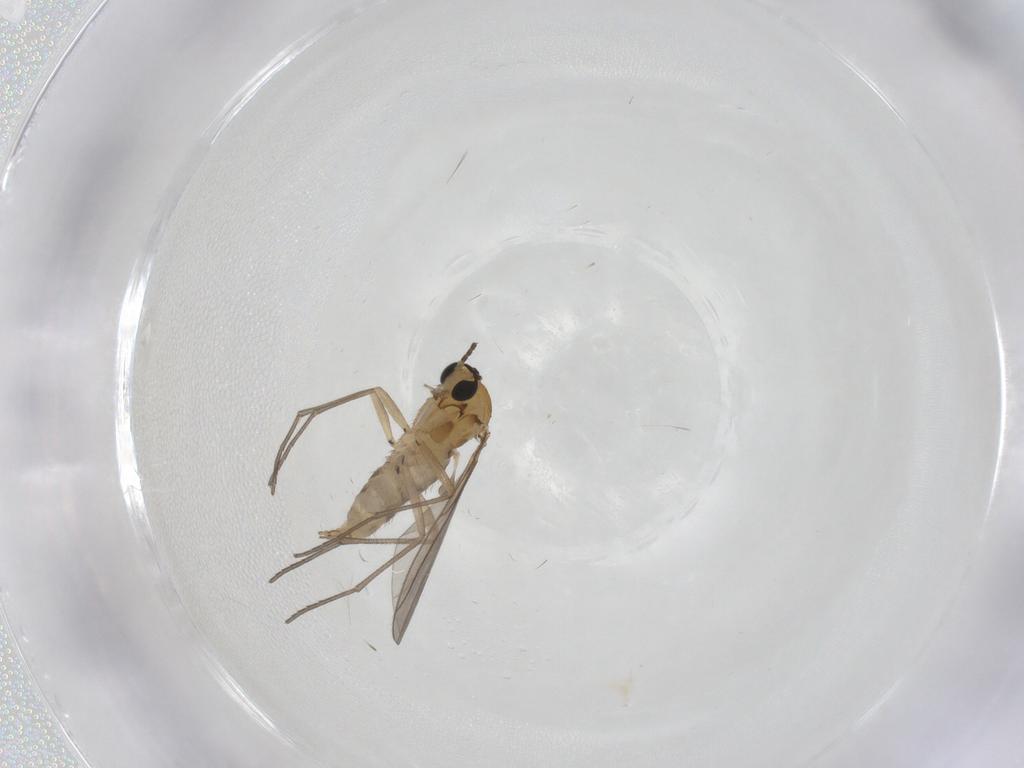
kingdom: Animalia
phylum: Arthropoda
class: Insecta
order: Diptera
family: Sciaridae
